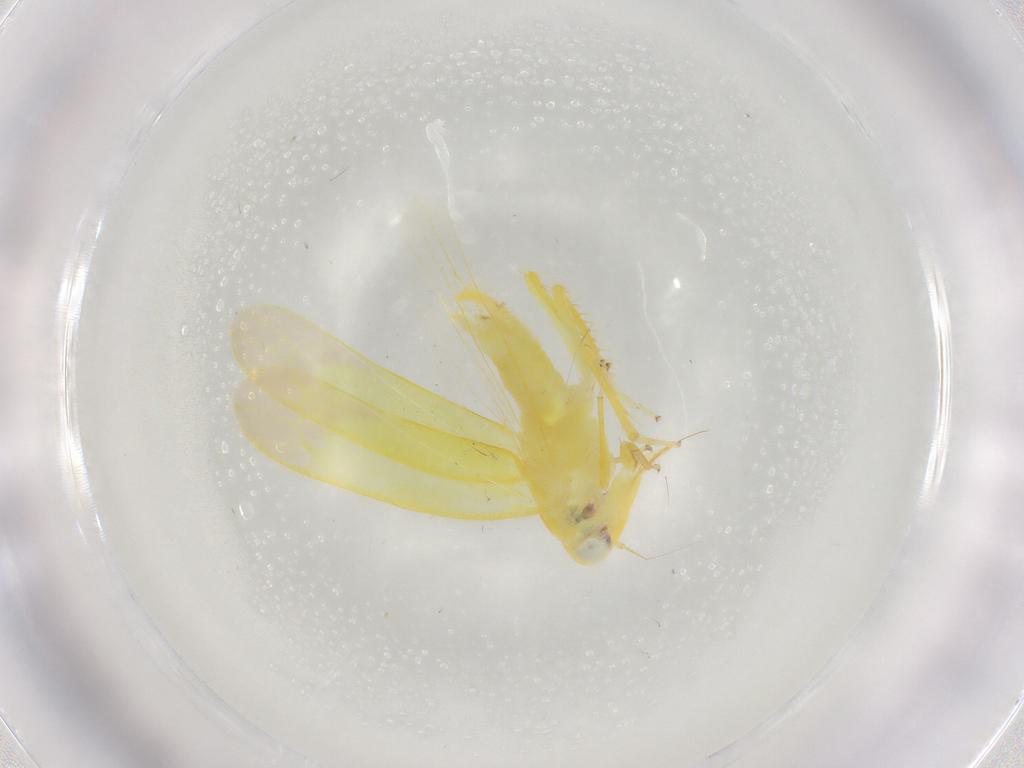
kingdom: Animalia
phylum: Arthropoda
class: Insecta
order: Hemiptera
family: Cicadellidae
